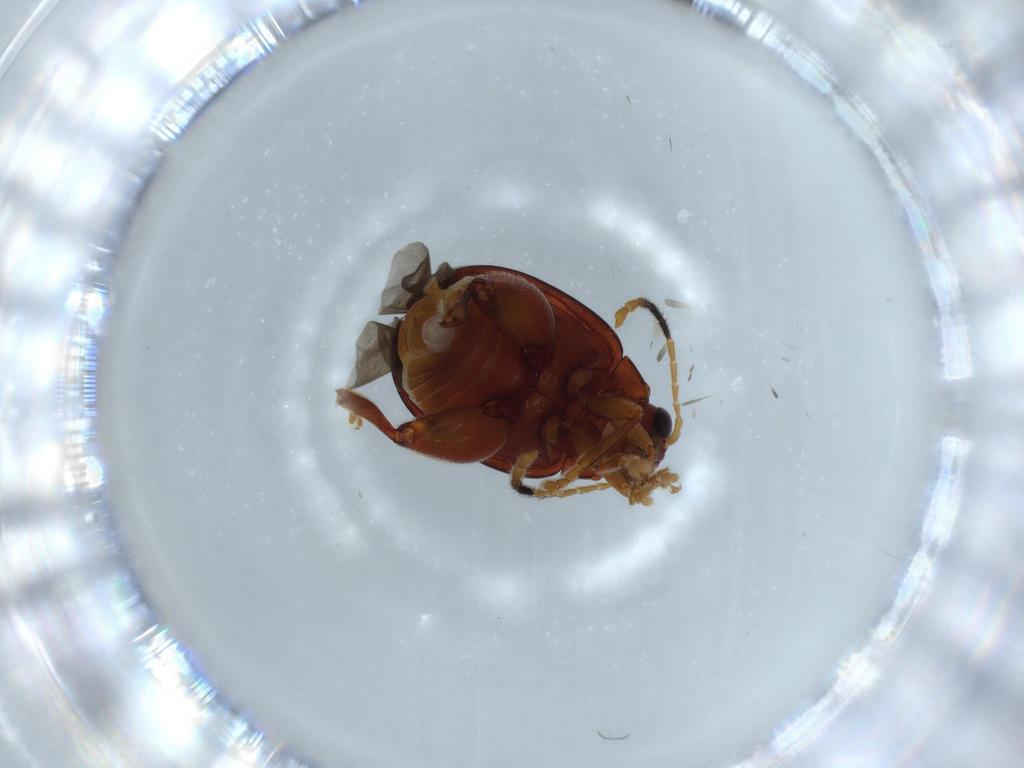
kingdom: Animalia
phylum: Arthropoda
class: Insecta
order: Coleoptera
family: Chrysomelidae
